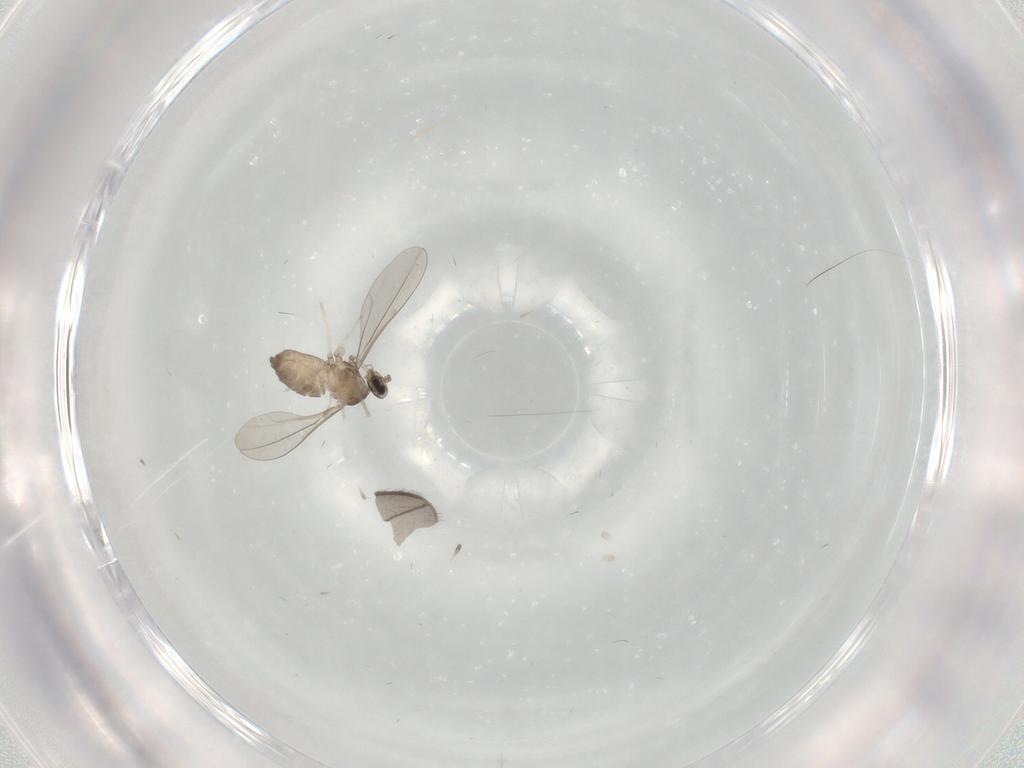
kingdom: Animalia
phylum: Arthropoda
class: Insecta
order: Diptera
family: Cecidomyiidae
